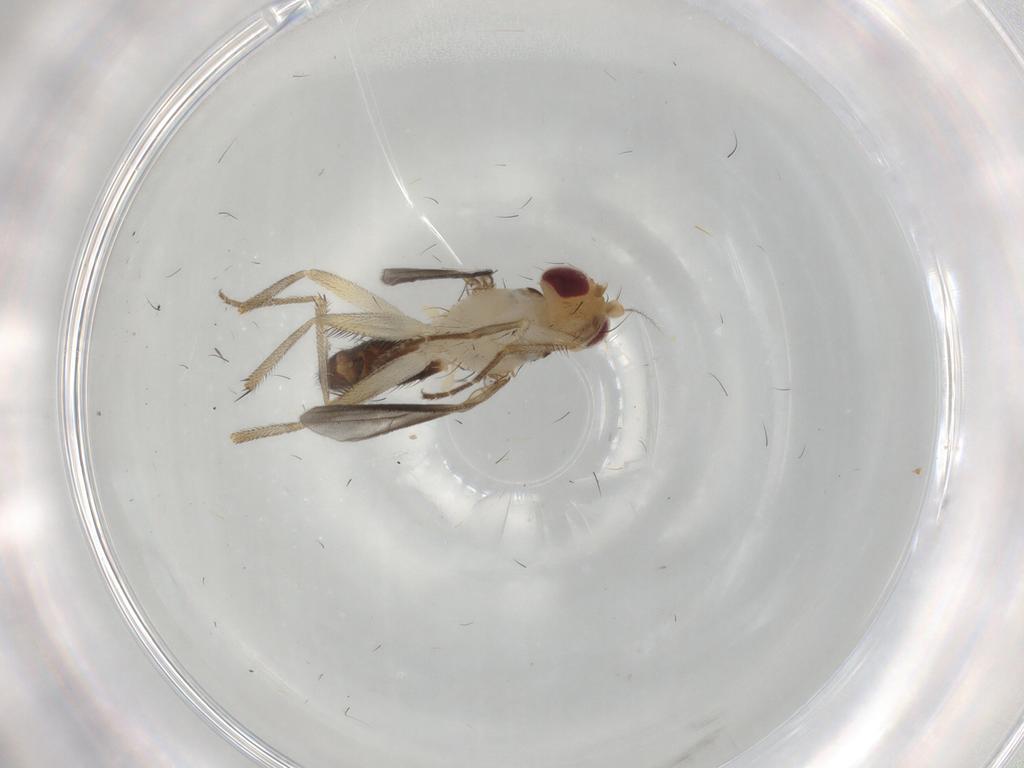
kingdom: Animalia
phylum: Arthropoda
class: Insecta
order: Diptera
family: Clusiidae
